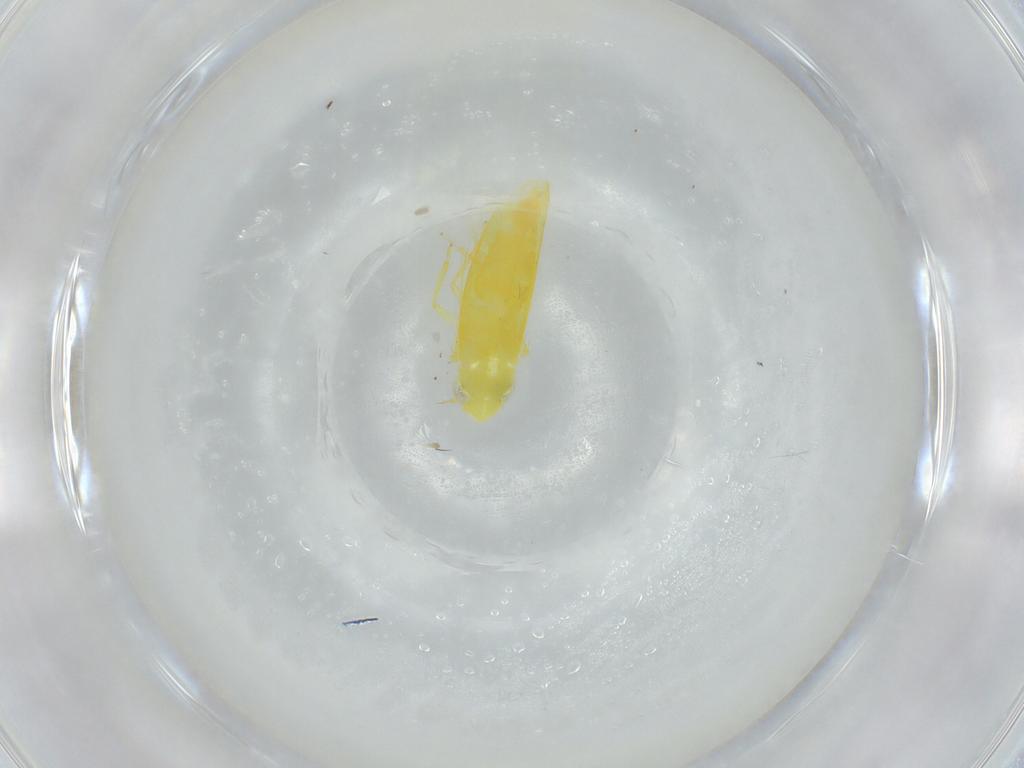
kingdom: Animalia
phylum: Arthropoda
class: Insecta
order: Hemiptera
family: Cicadellidae
